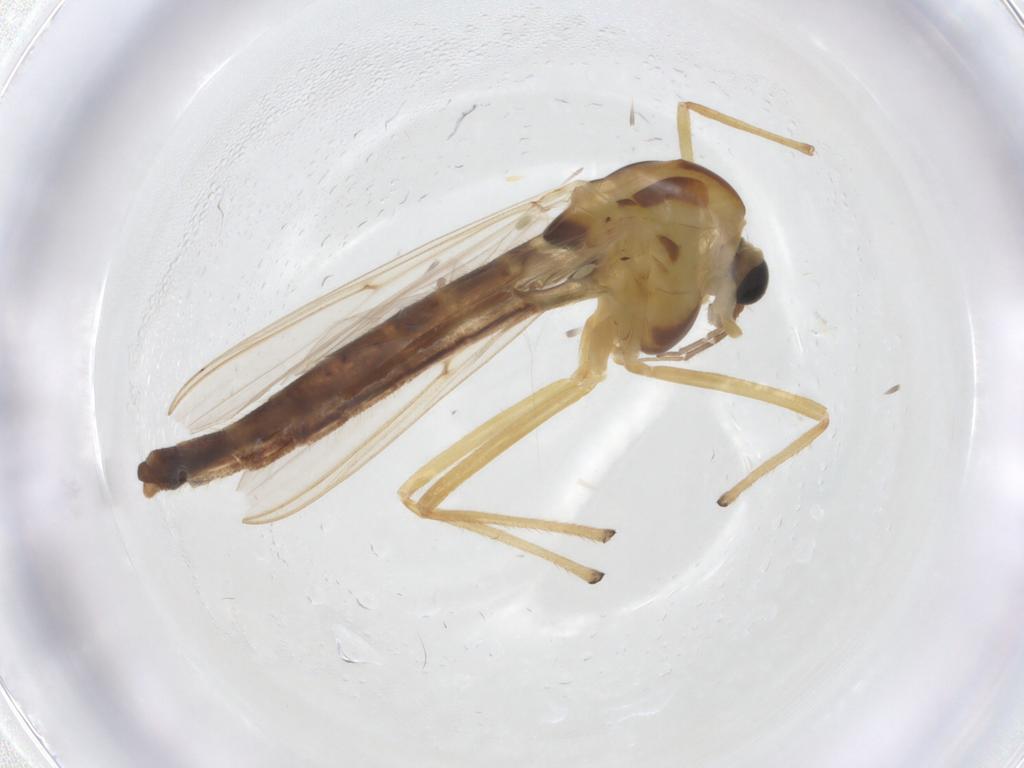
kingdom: Animalia
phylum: Arthropoda
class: Insecta
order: Diptera
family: Chironomidae
